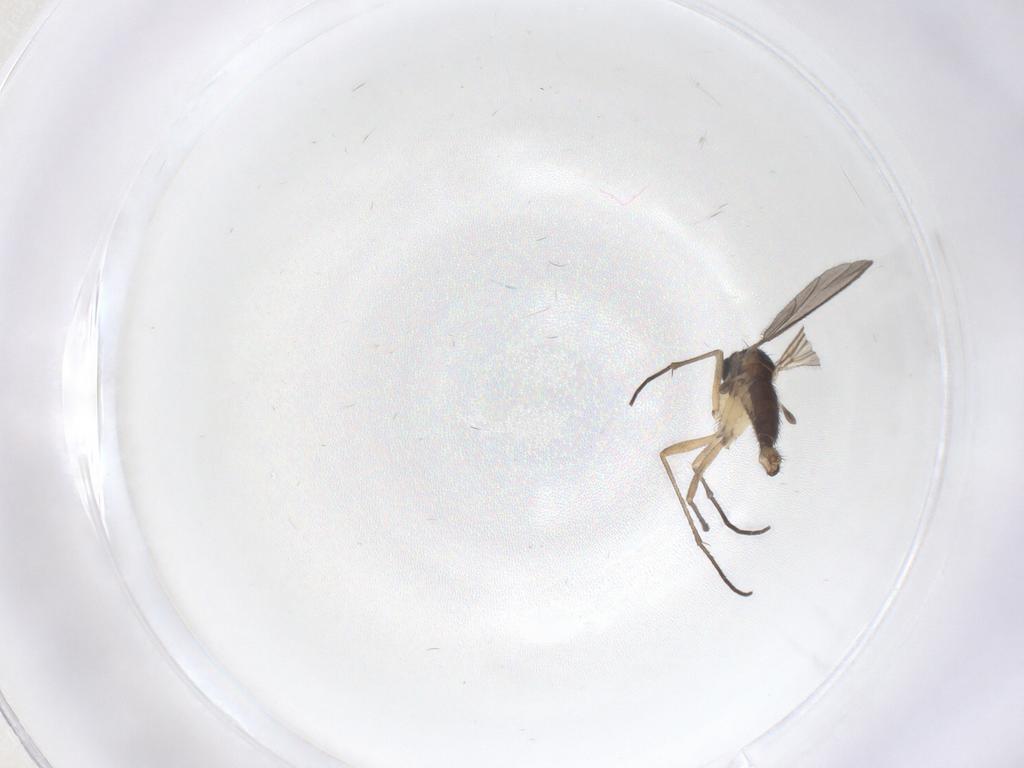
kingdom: Animalia
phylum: Arthropoda
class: Insecta
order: Diptera
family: Sciaridae
